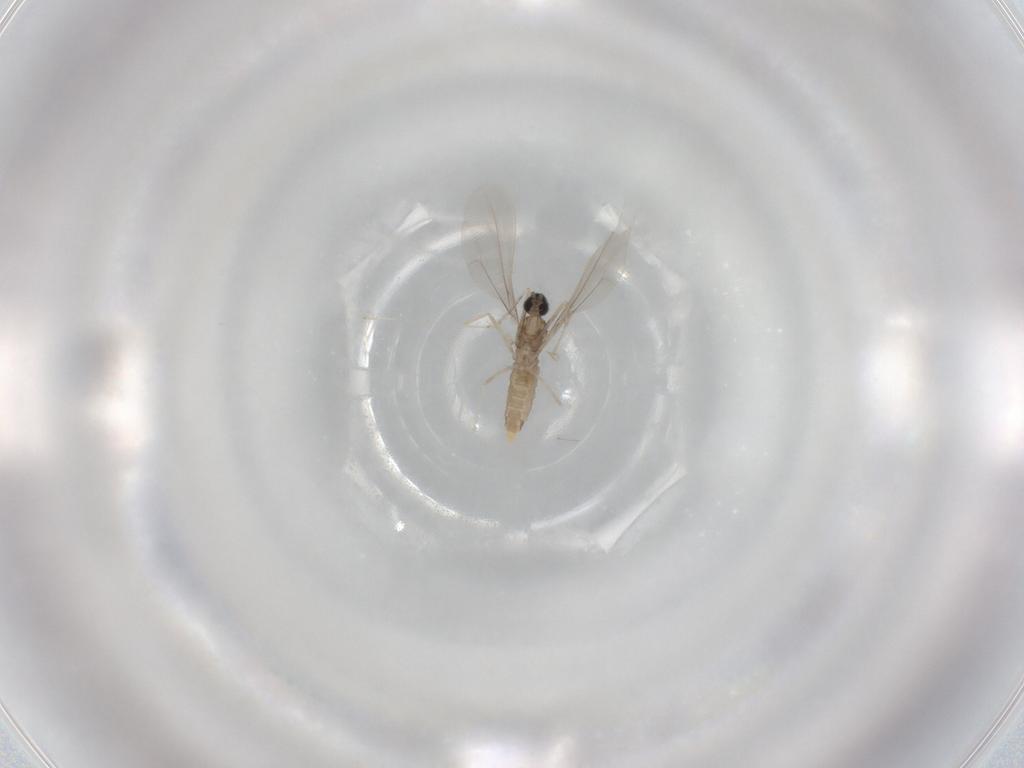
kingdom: Animalia
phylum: Arthropoda
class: Insecta
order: Diptera
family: Cecidomyiidae
